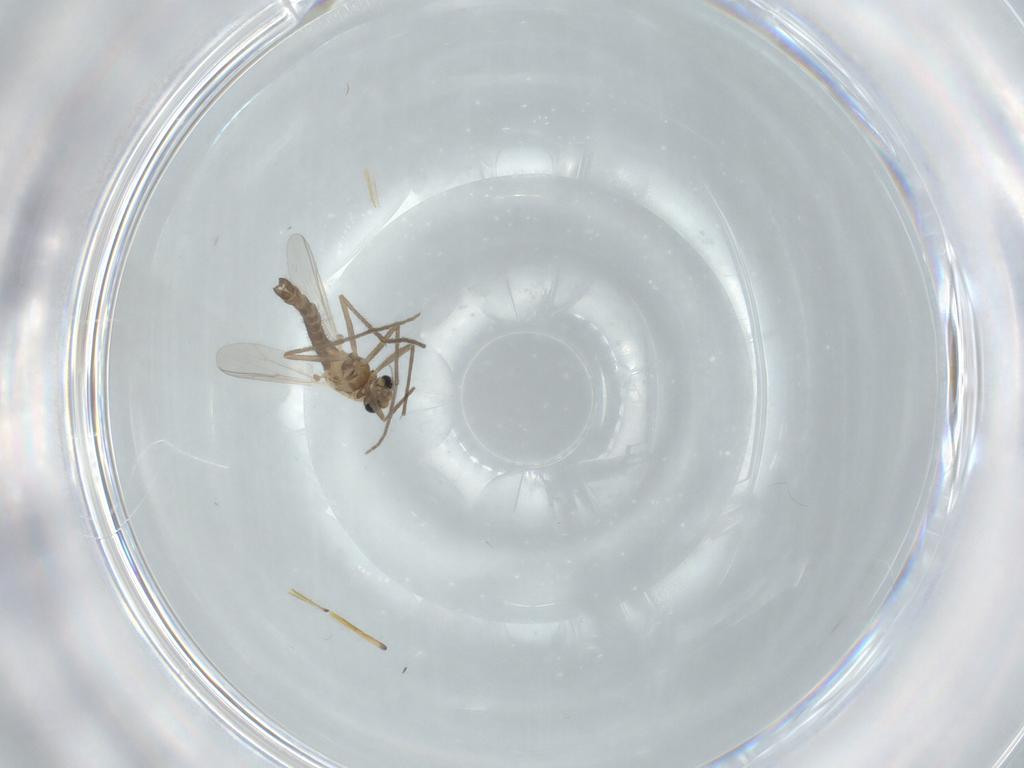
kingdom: Animalia
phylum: Arthropoda
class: Insecta
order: Diptera
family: Chironomidae
